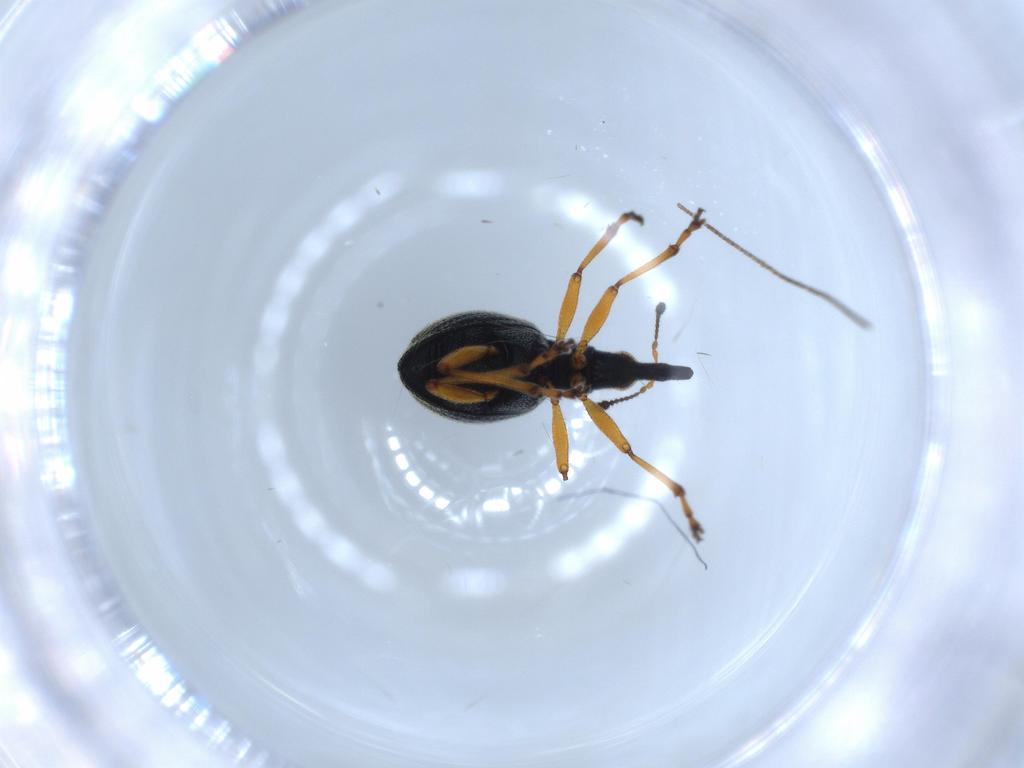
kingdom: Animalia
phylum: Arthropoda
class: Insecta
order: Coleoptera
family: Brentidae
